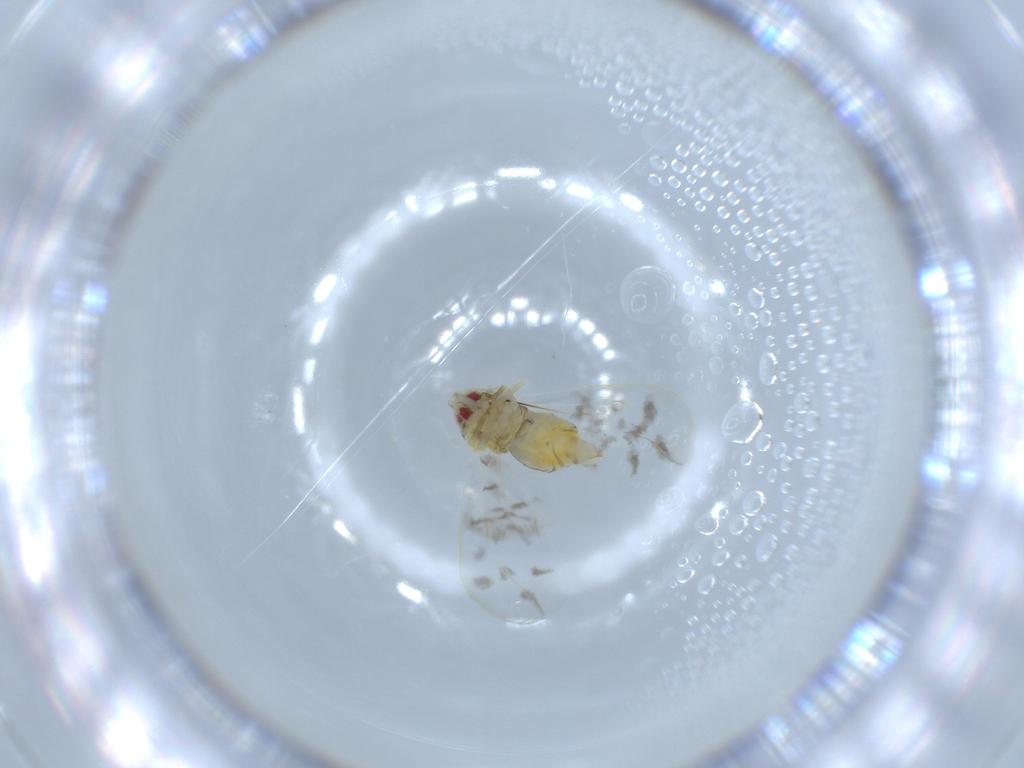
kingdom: Animalia
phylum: Arthropoda
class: Insecta
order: Hemiptera
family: Aleyrodidae
